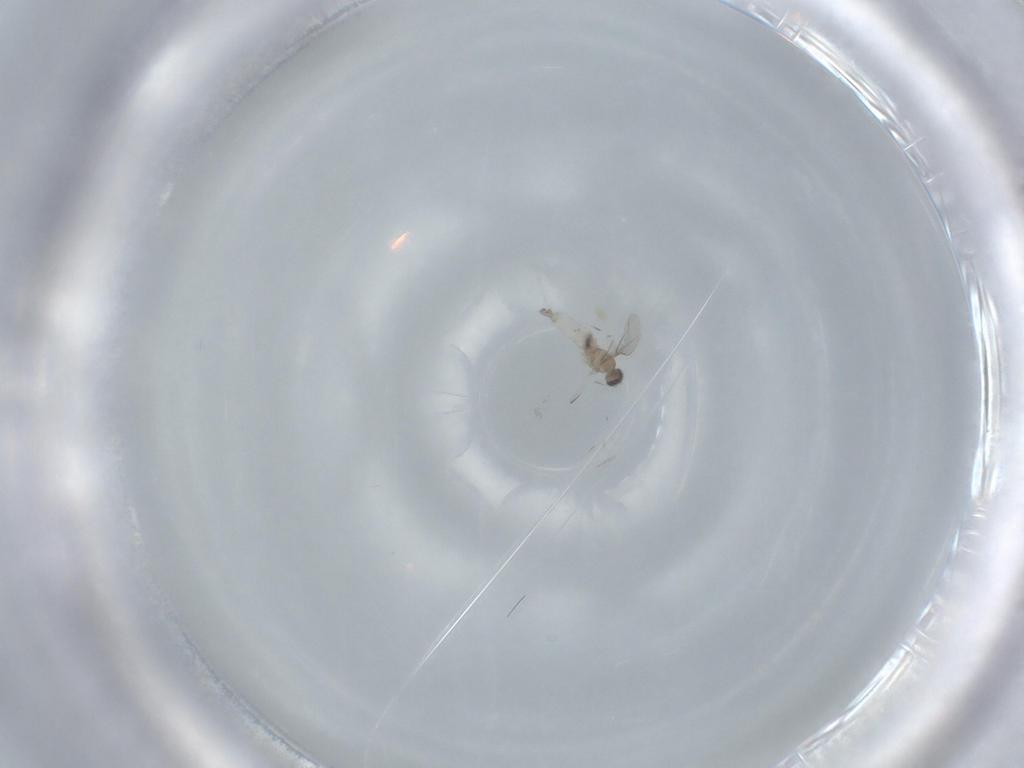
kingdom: Animalia
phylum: Arthropoda
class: Insecta
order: Diptera
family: Cecidomyiidae
